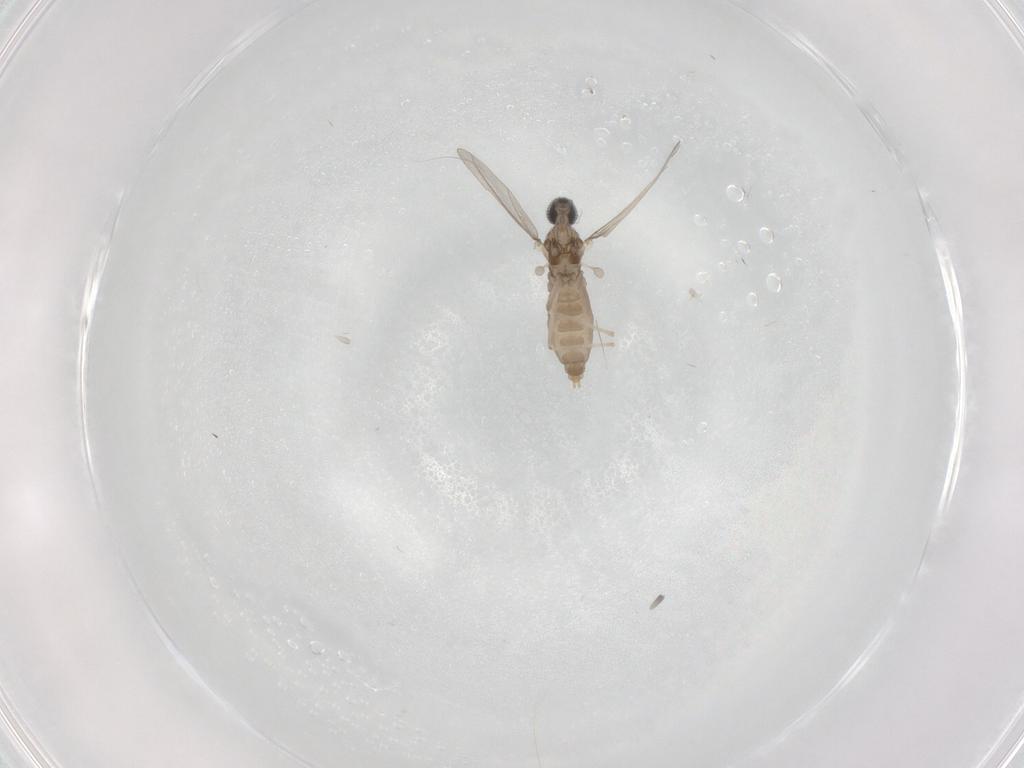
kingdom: Animalia
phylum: Arthropoda
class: Insecta
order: Diptera
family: Cecidomyiidae
